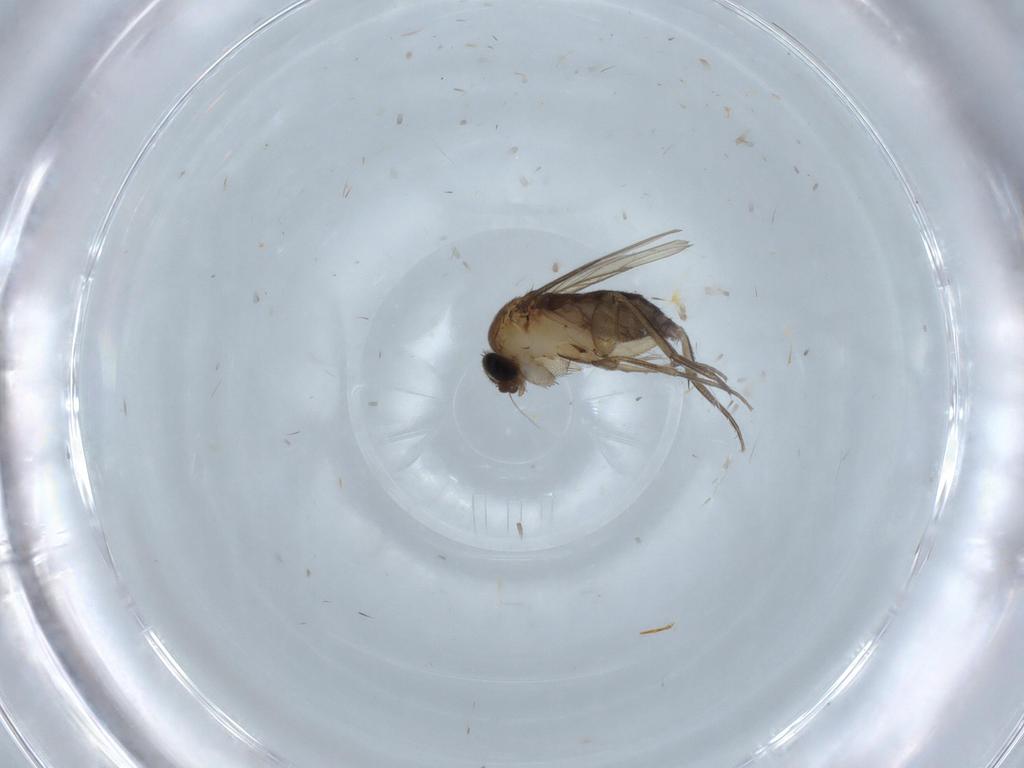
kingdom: Animalia
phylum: Arthropoda
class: Insecta
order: Diptera
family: Phoridae
